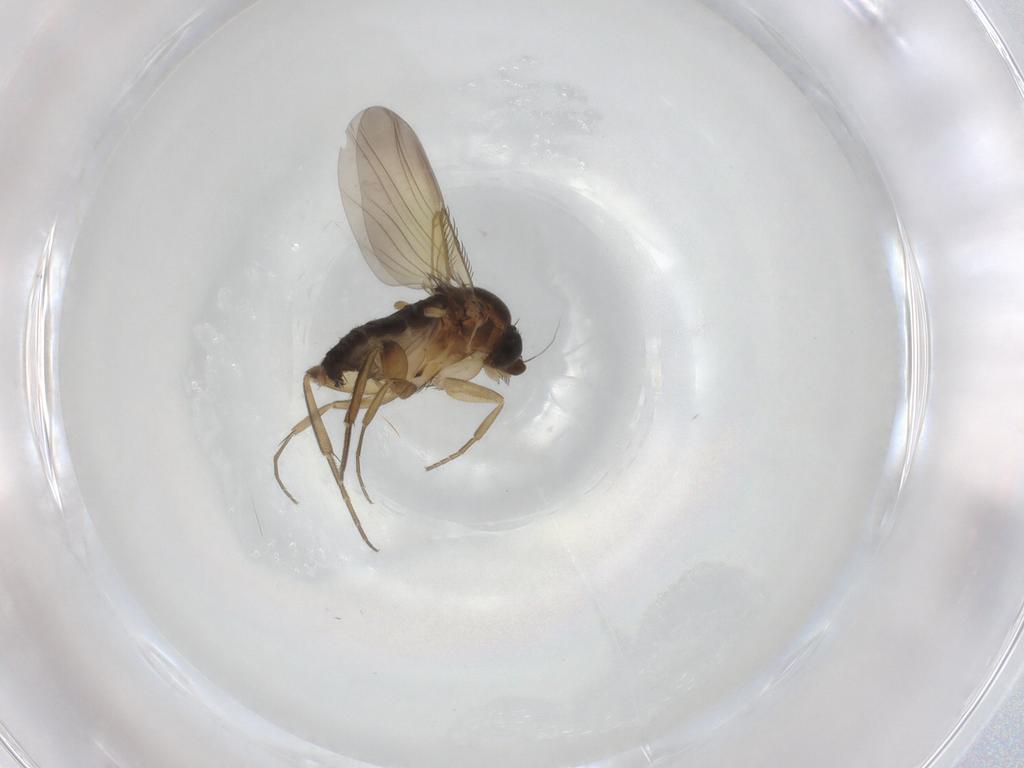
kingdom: Animalia
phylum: Arthropoda
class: Insecta
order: Diptera
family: Phoridae
